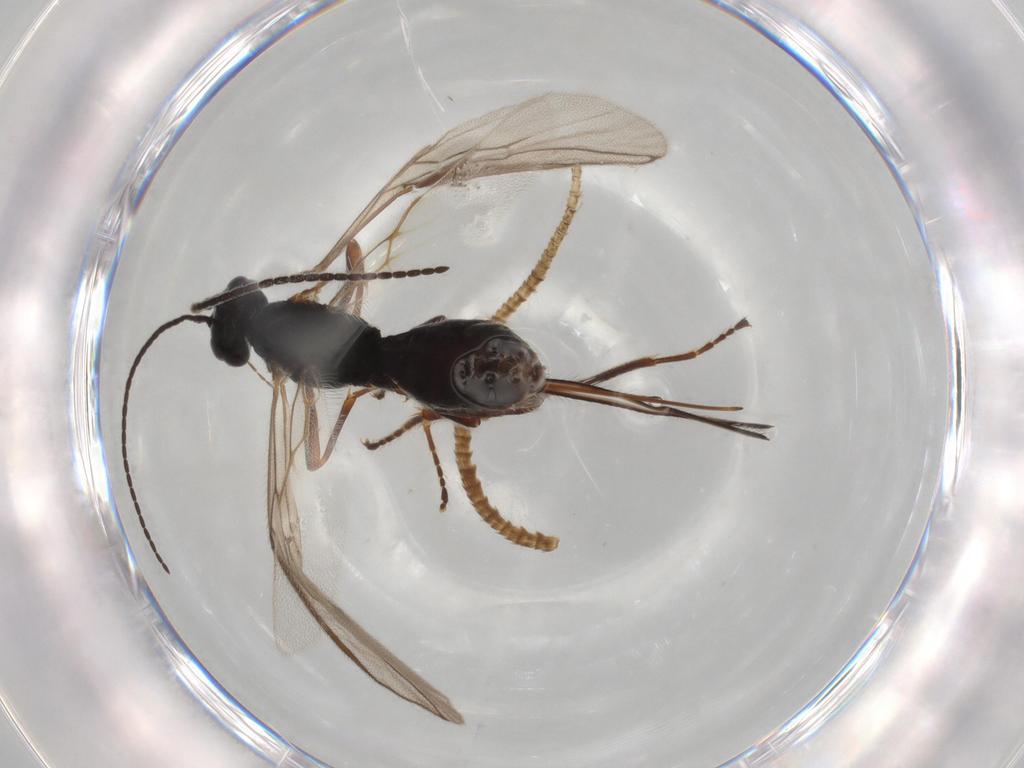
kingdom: Animalia
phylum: Arthropoda
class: Insecta
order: Hymenoptera
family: Braconidae
